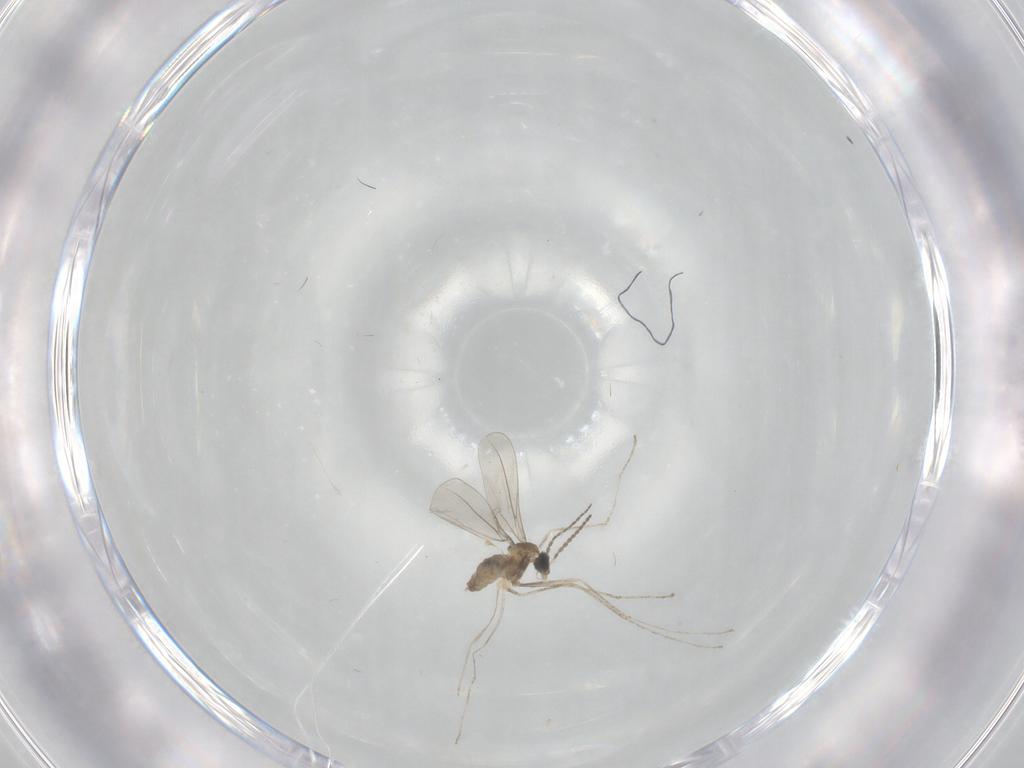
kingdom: Animalia
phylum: Arthropoda
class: Insecta
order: Diptera
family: Cecidomyiidae
